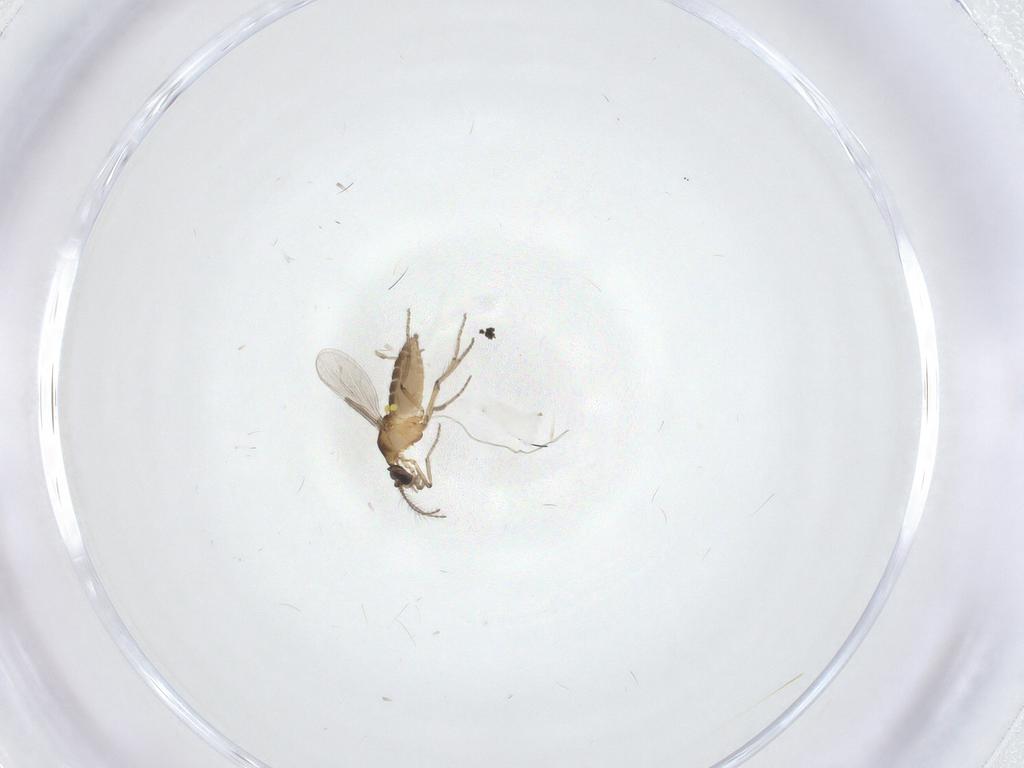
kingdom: Animalia
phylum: Arthropoda
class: Insecta
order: Diptera
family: Ceratopogonidae
